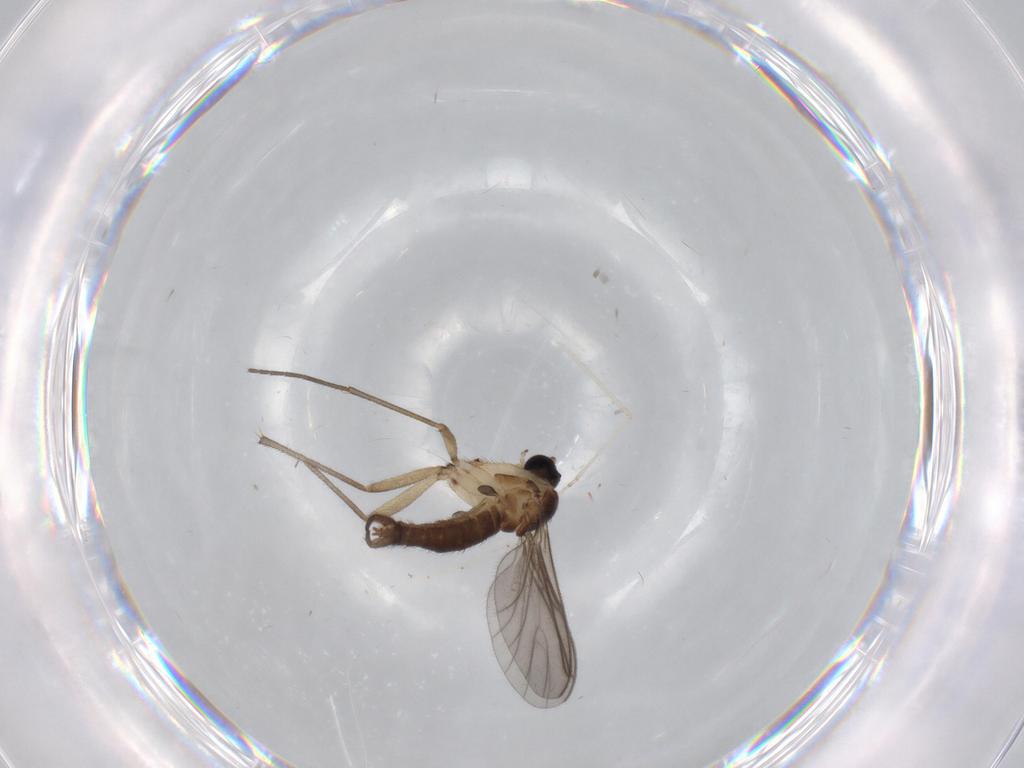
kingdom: Animalia
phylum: Arthropoda
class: Insecta
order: Diptera
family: Sciaridae
